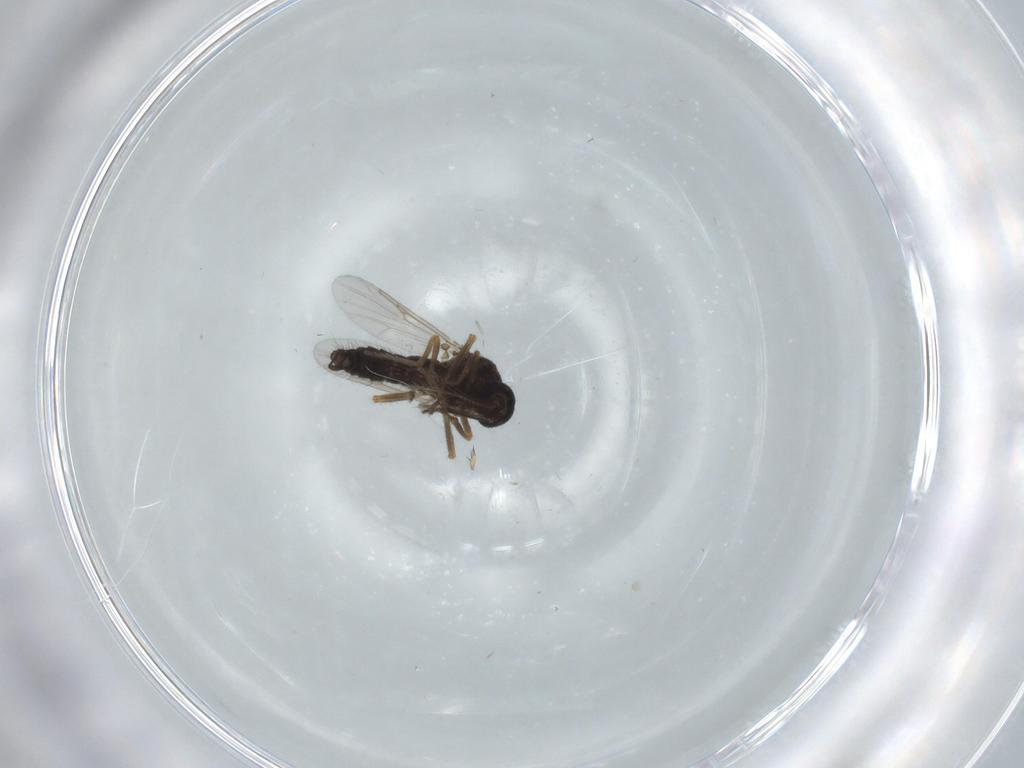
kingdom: Animalia
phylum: Arthropoda
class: Insecta
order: Diptera
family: Ceratopogonidae
